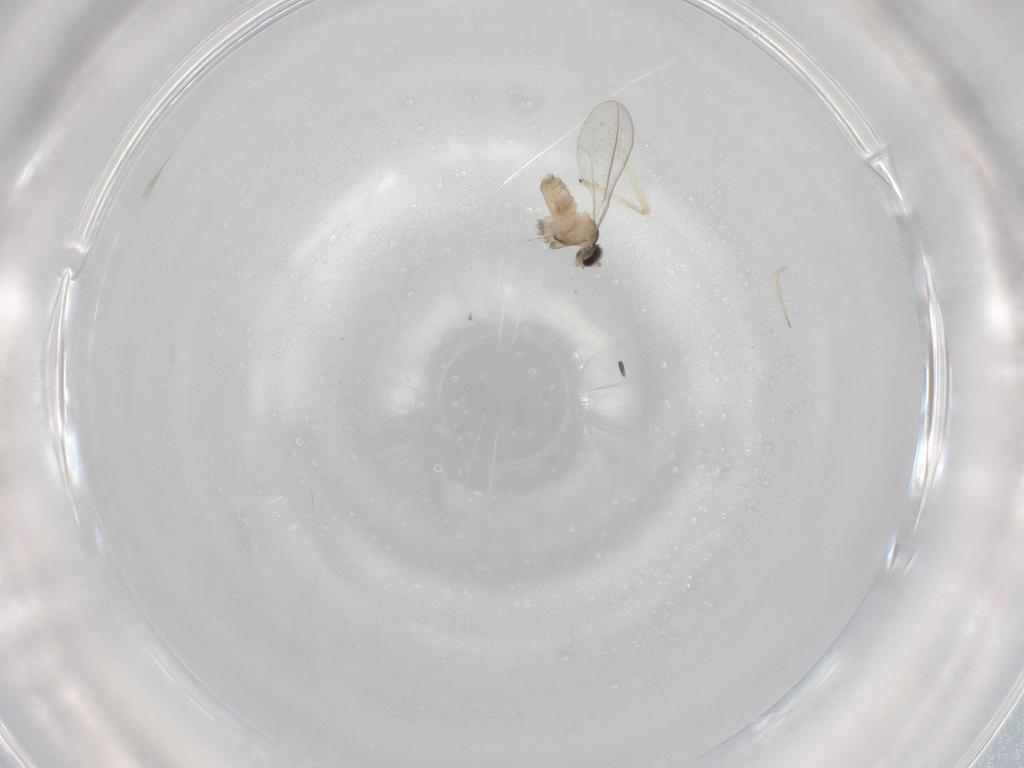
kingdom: Animalia
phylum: Arthropoda
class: Insecta
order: Diptera
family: Cecidomyiidae
